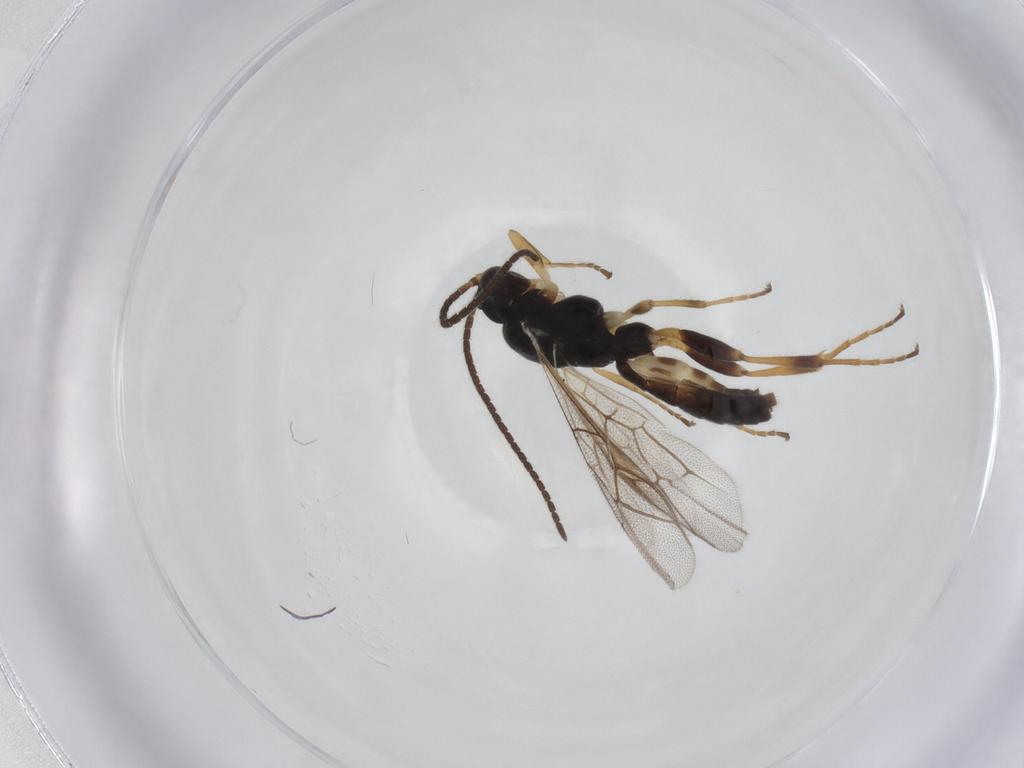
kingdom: Animalia
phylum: Arthropoda
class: Insecta
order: Hymenoptera
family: Ichneumonidae
